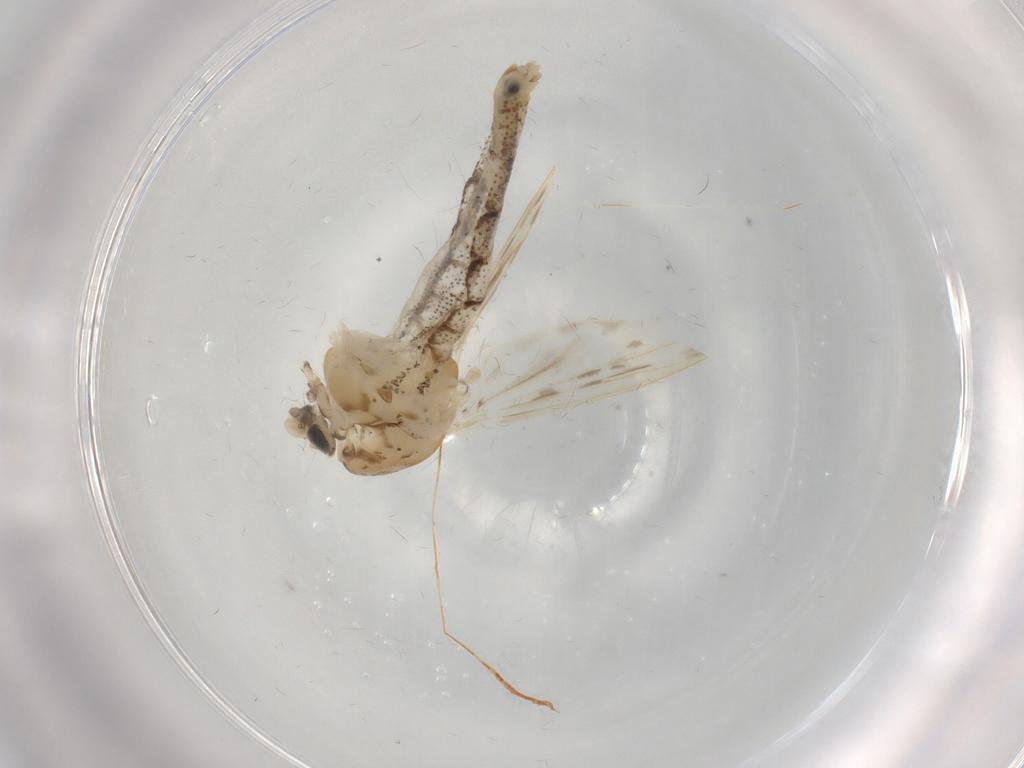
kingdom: Animalia
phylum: Arthropoda
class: Insecta
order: Diptera
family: Chaoboridae
